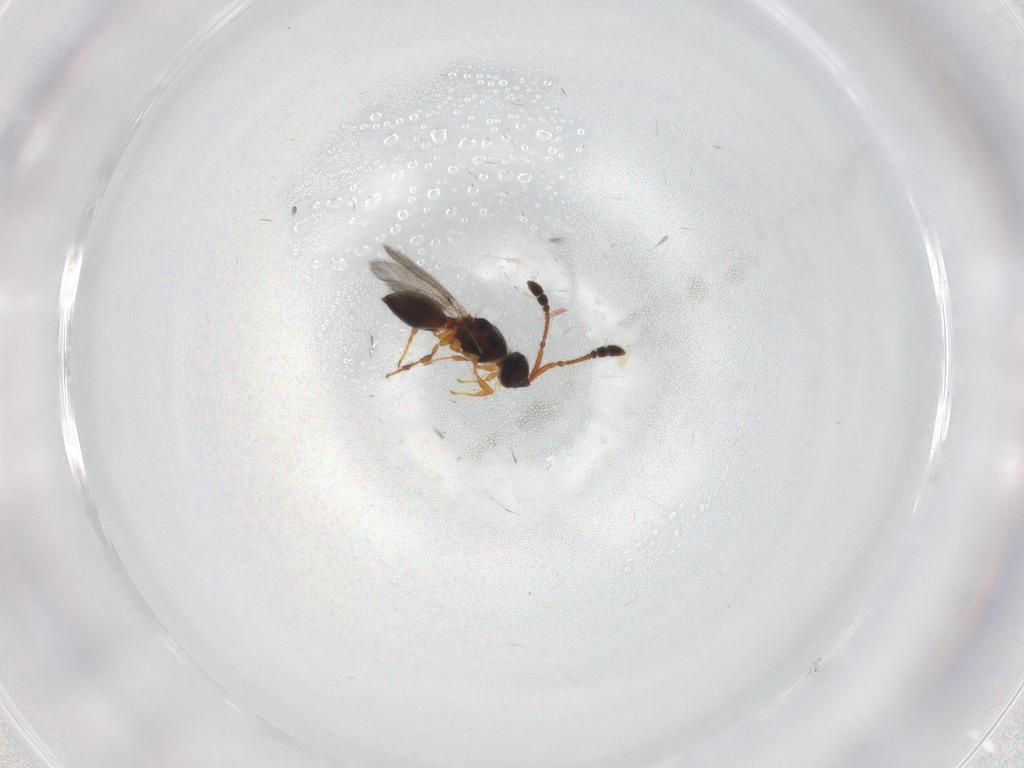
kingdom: Animalia
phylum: Arthropoda
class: Insecta
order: Hymenoptera
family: Diapriidae
